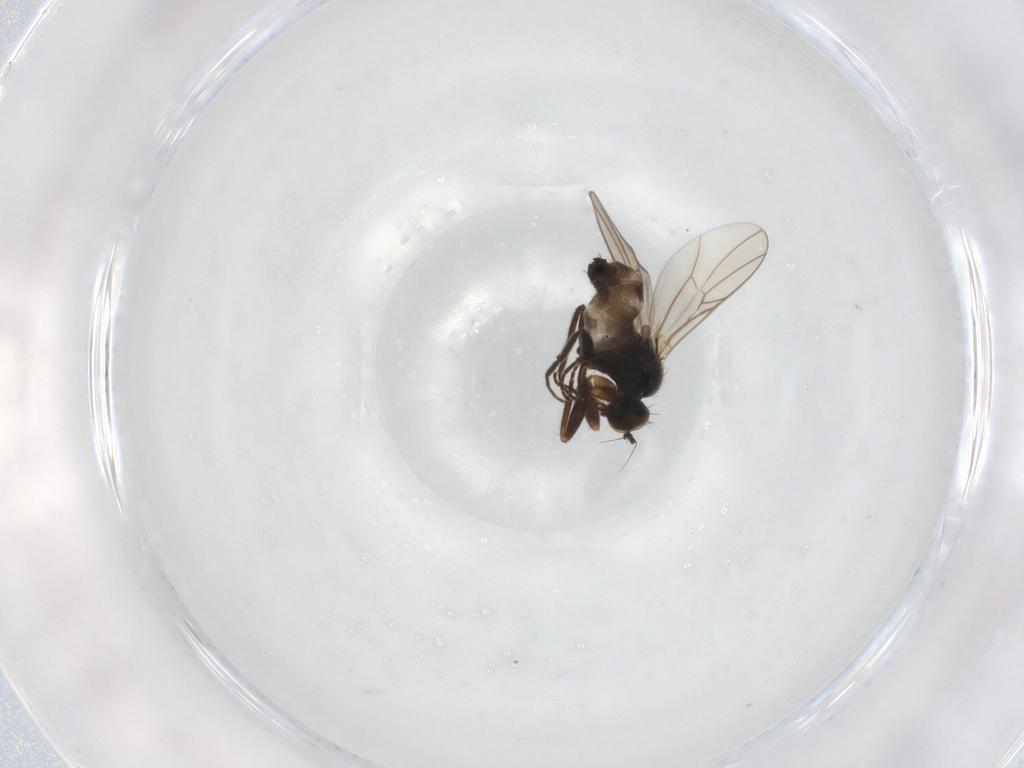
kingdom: Animalia
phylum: Arthropoda
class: Insecta
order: Diptera
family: Hybotidae
